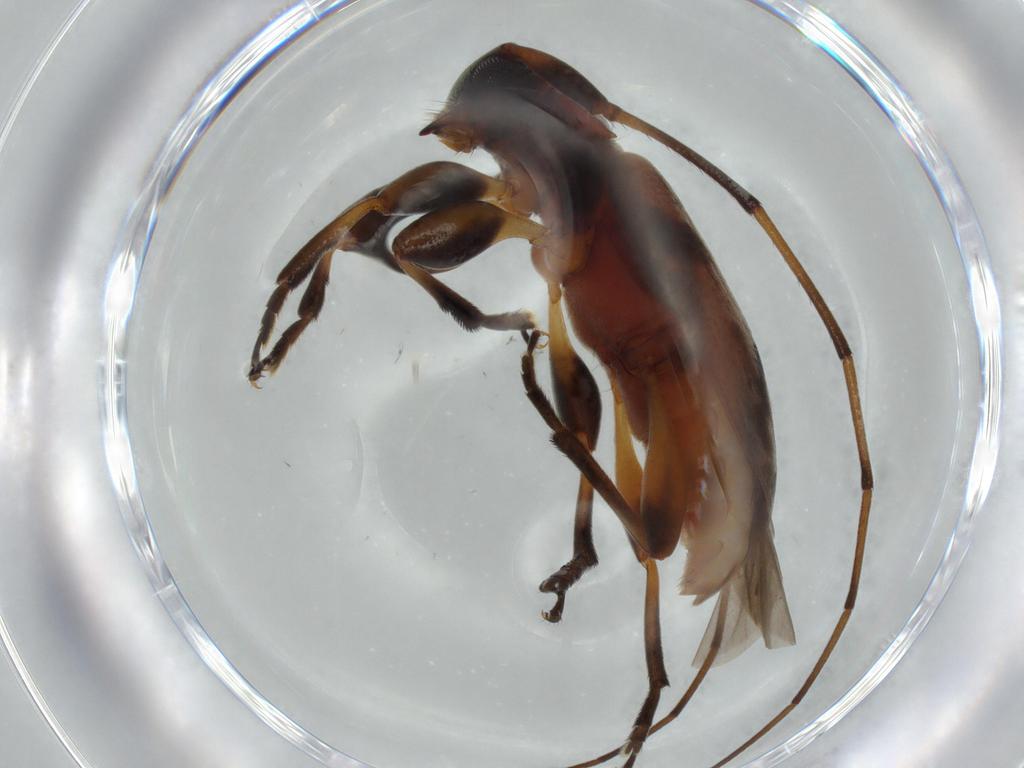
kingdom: Animalia
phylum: Arthropoda
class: Insecta
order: Coleoptera
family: Cerambycidae
